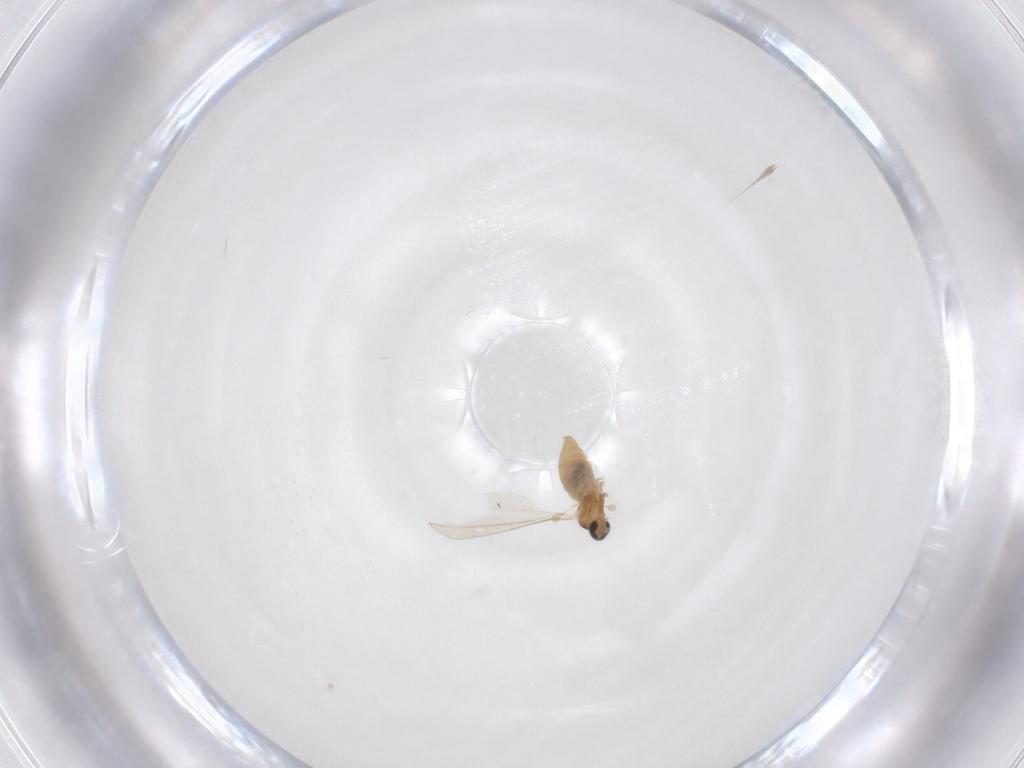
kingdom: Animalia
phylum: Arthropoda
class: Insecta
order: Diptera
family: Cecidomyiidae
